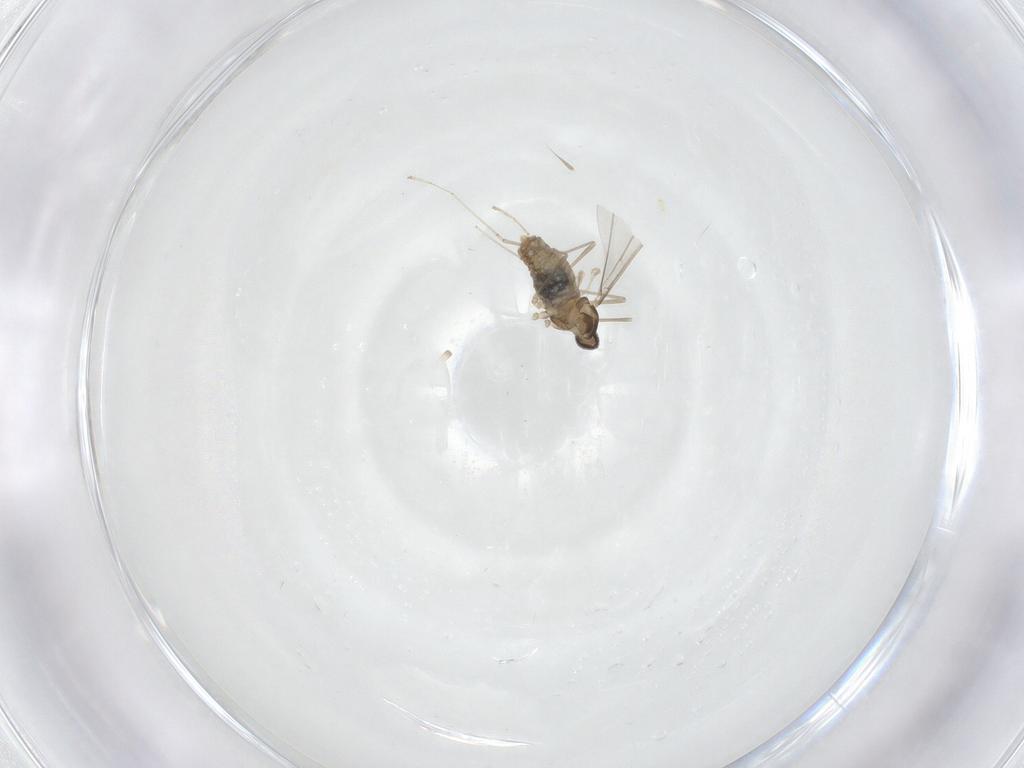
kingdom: Animalia
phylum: Arthropoda
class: Insecta
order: Diptera
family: Cecidomyiidae
